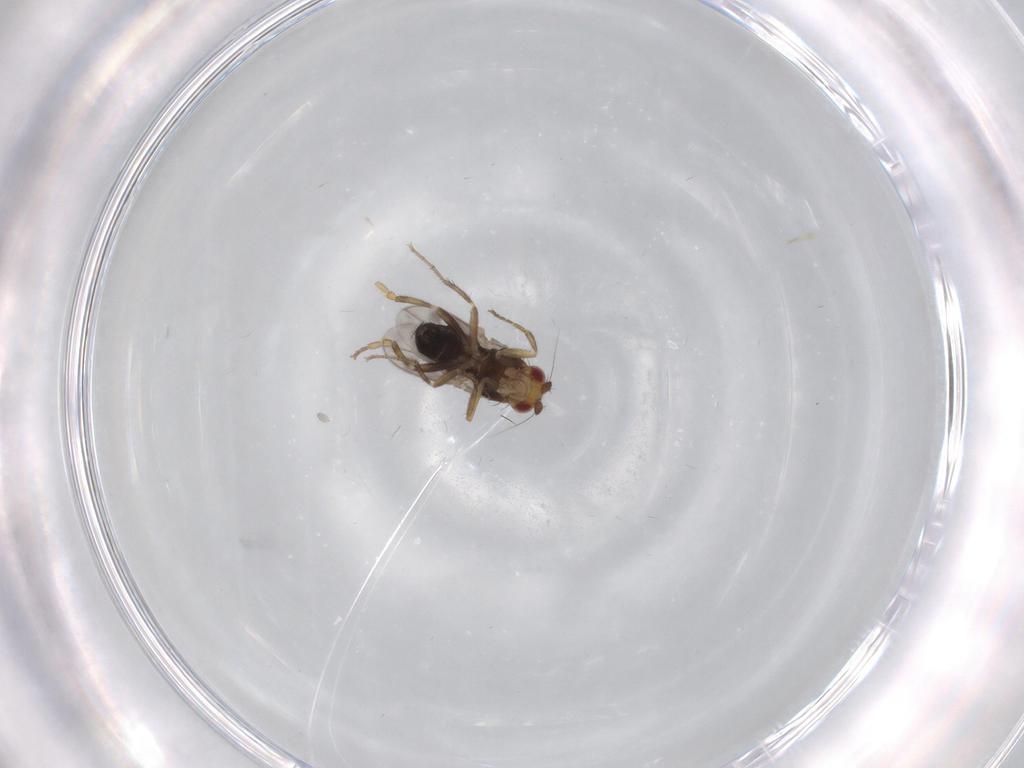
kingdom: Animalia
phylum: Arthropoda
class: Insecta
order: Diptera
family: Sphaeroceridae
